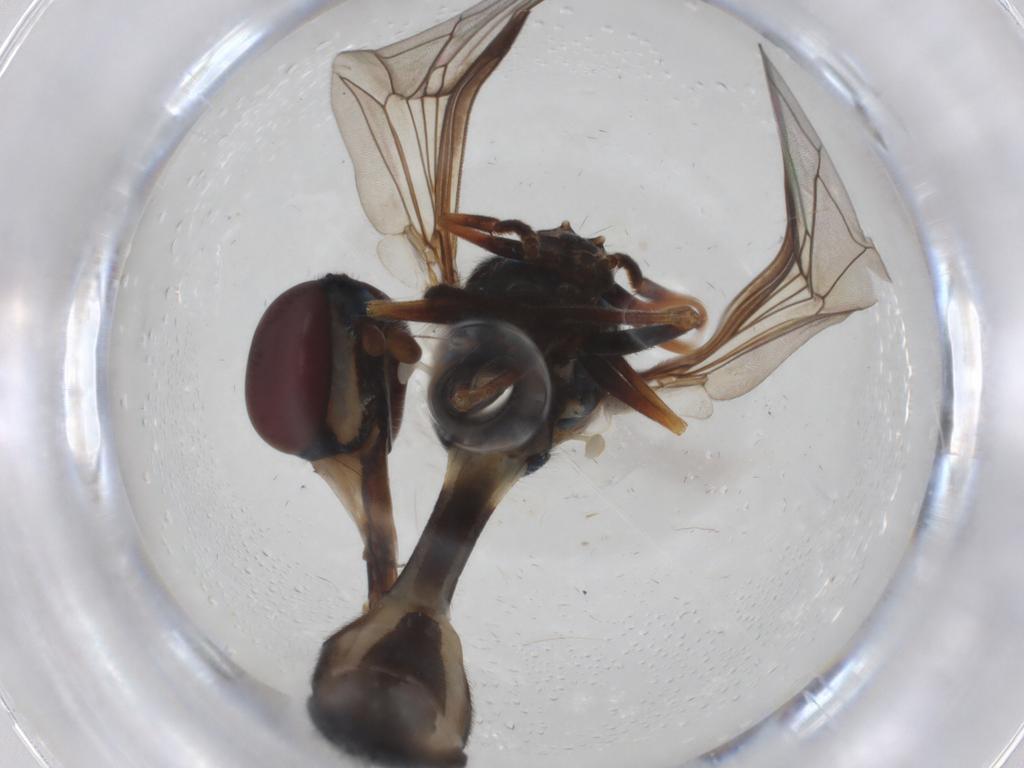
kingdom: Animalia
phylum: Arthropoda
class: Insecta
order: Diptera
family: Syrphidae
